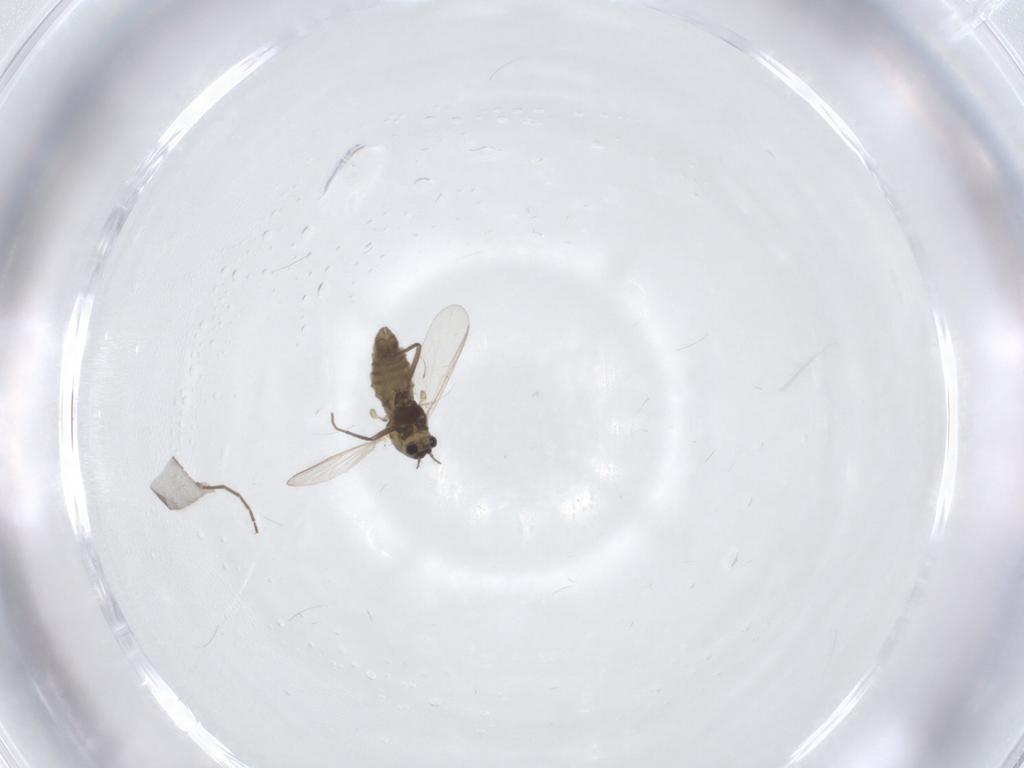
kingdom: Animalia
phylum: Arthropoda
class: Insecta
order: Diptera
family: Chironomidae
